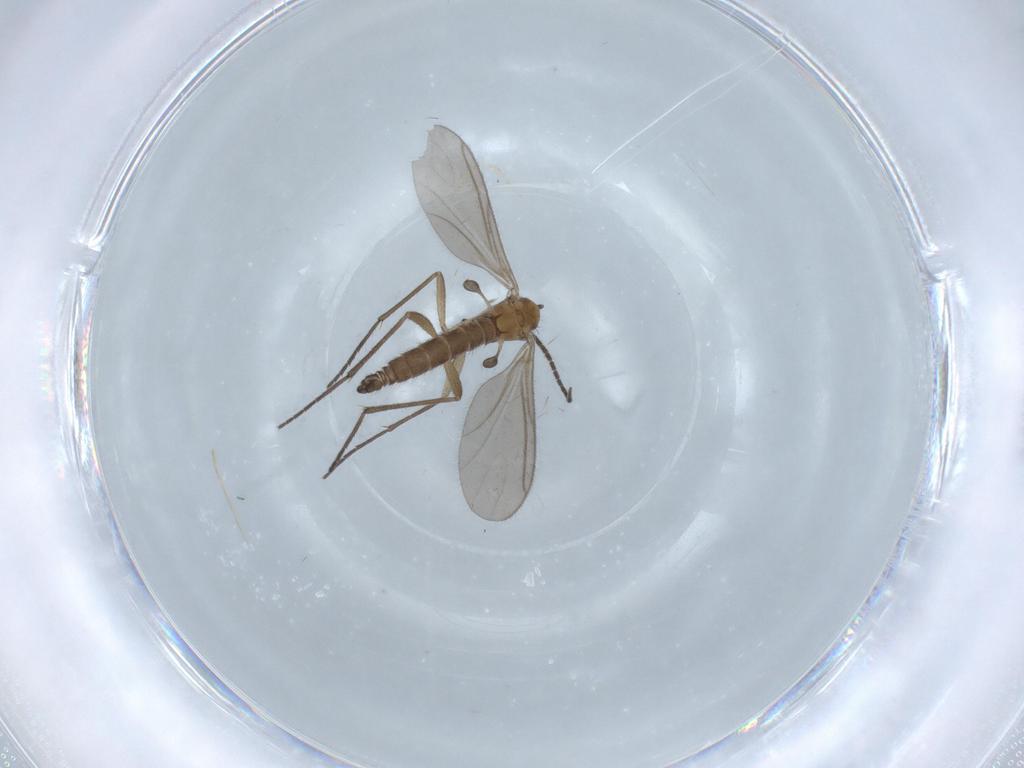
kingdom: Animalia
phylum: Arthropoda
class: Insecta
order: Diptera
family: Sciaridae
